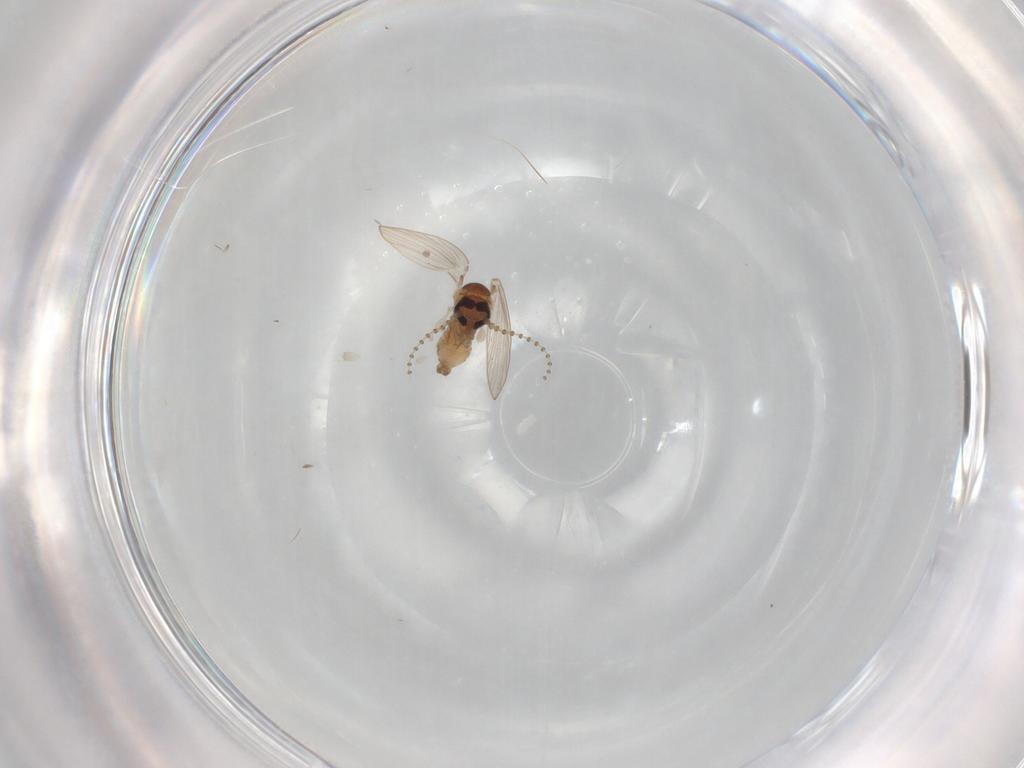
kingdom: Animalia
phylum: Arthropoda
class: Insecta
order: Diptera
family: Psychodidae
